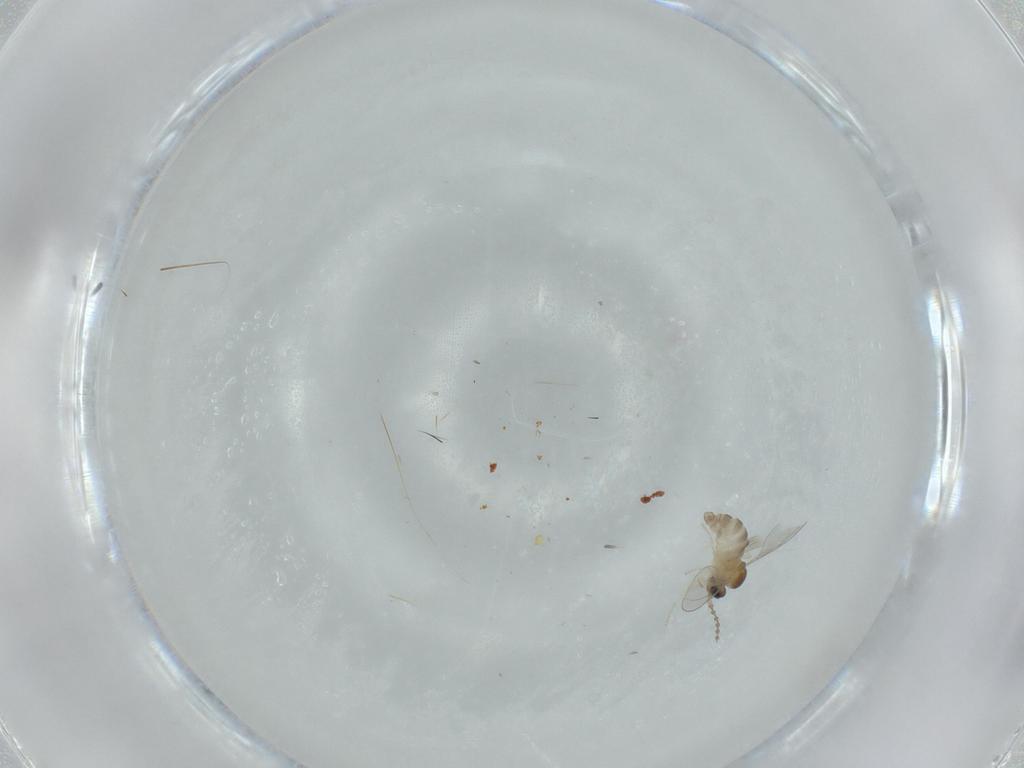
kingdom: Animalia
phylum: Arthropoda
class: Insecta
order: Diptera
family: Cecidomyiidae
